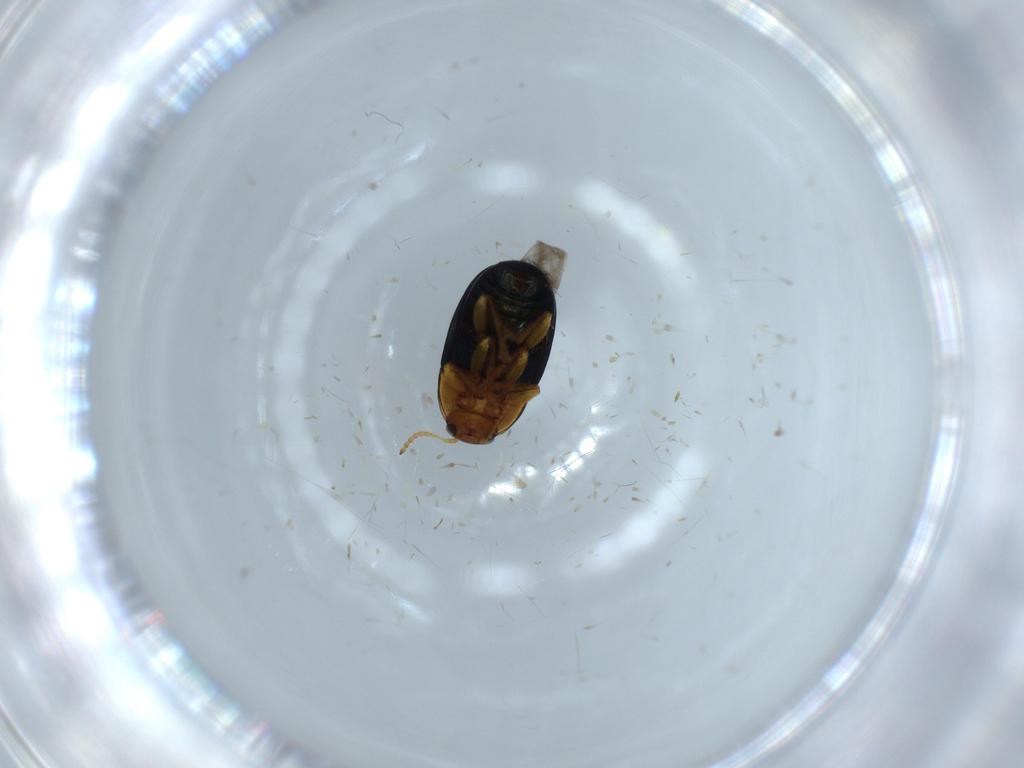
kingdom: Animalia
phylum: Arthropoda
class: Insecta
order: Coleoptera
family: Chrysomelidae
